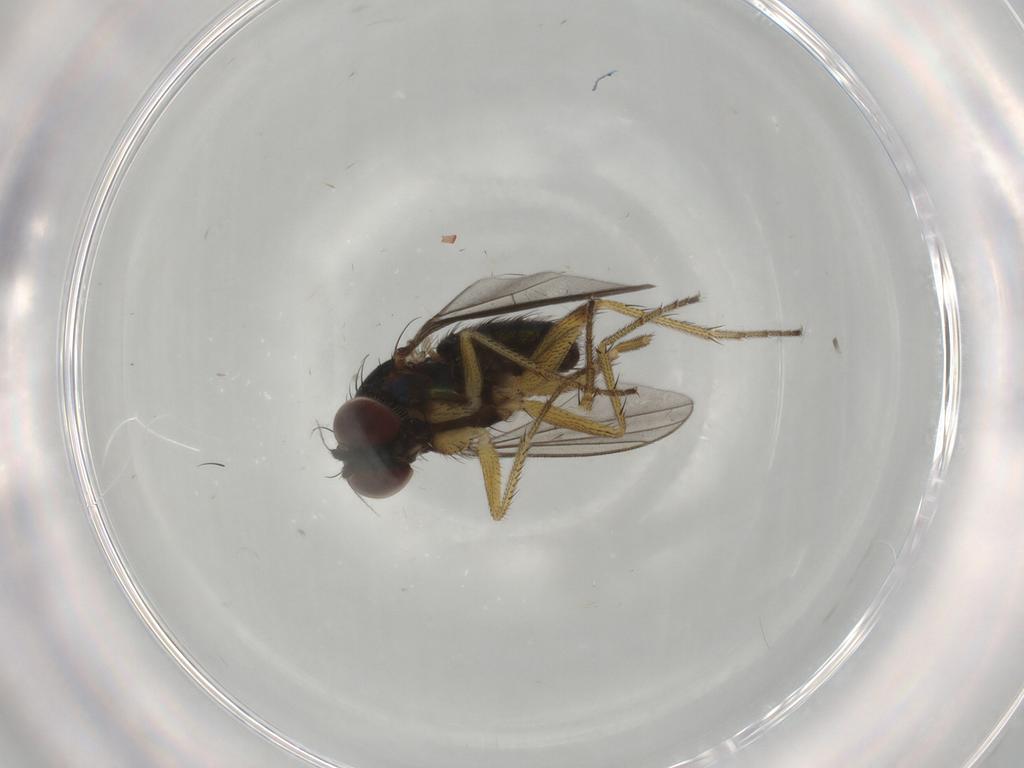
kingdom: Animalia
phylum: Arthropoda
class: Insecta
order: Diptera
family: Dolichopodidae
